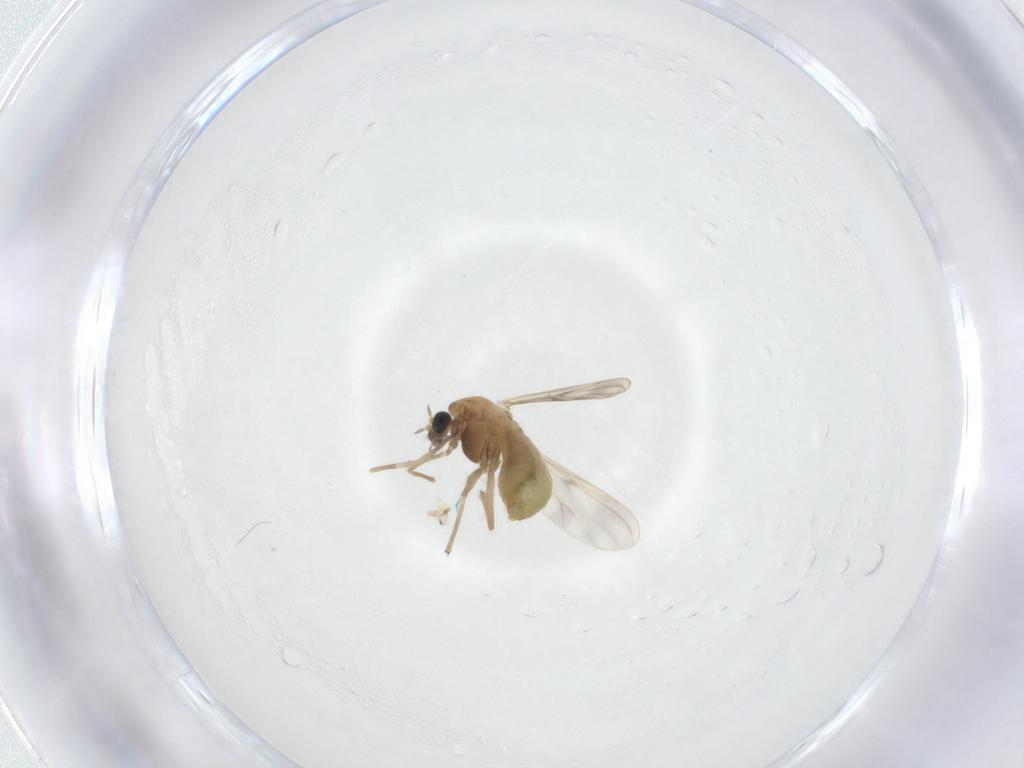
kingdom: Animalia
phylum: Arthropoda
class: Insecta
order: Diptera
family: Chironomidae
